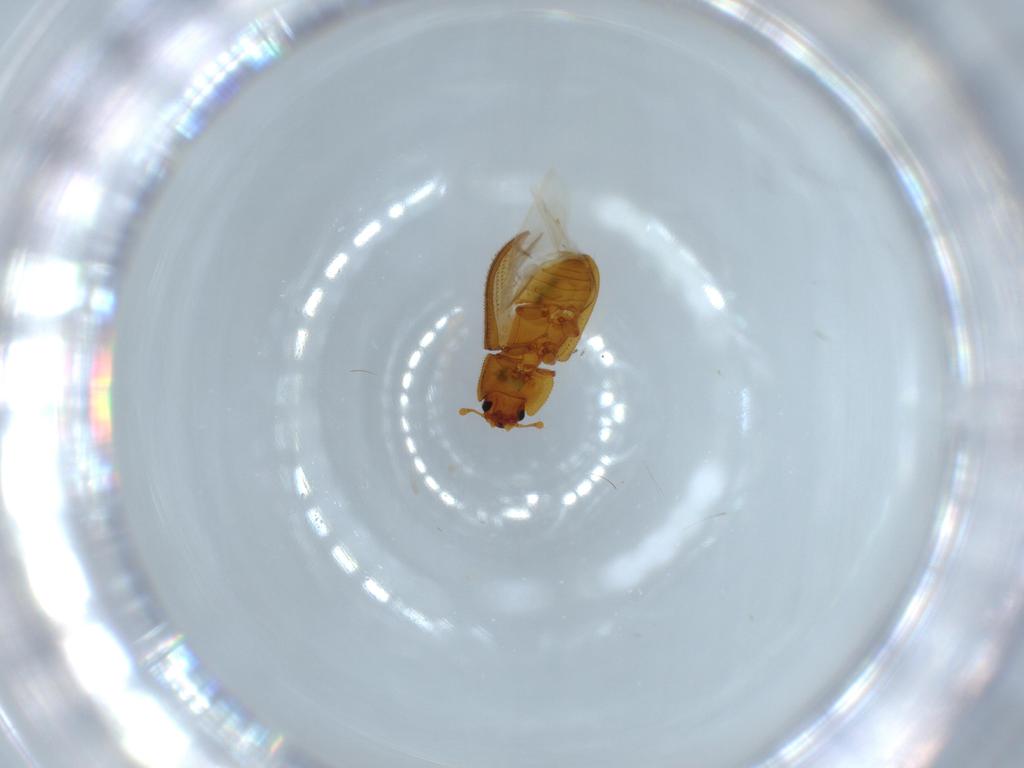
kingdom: Animalia
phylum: Arthropoda
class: Insecta
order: Coleoptera
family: Zopheridae
